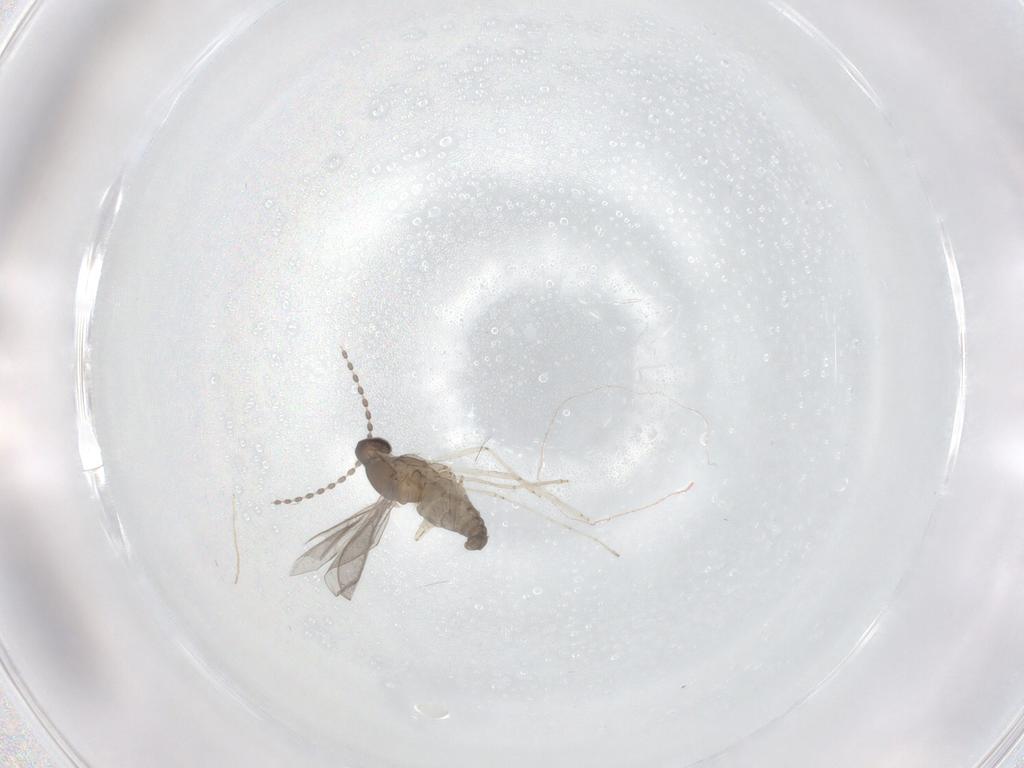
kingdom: Animalia
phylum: Arthropoda
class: Insecta
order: Diptera
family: Cecidomyiidae
